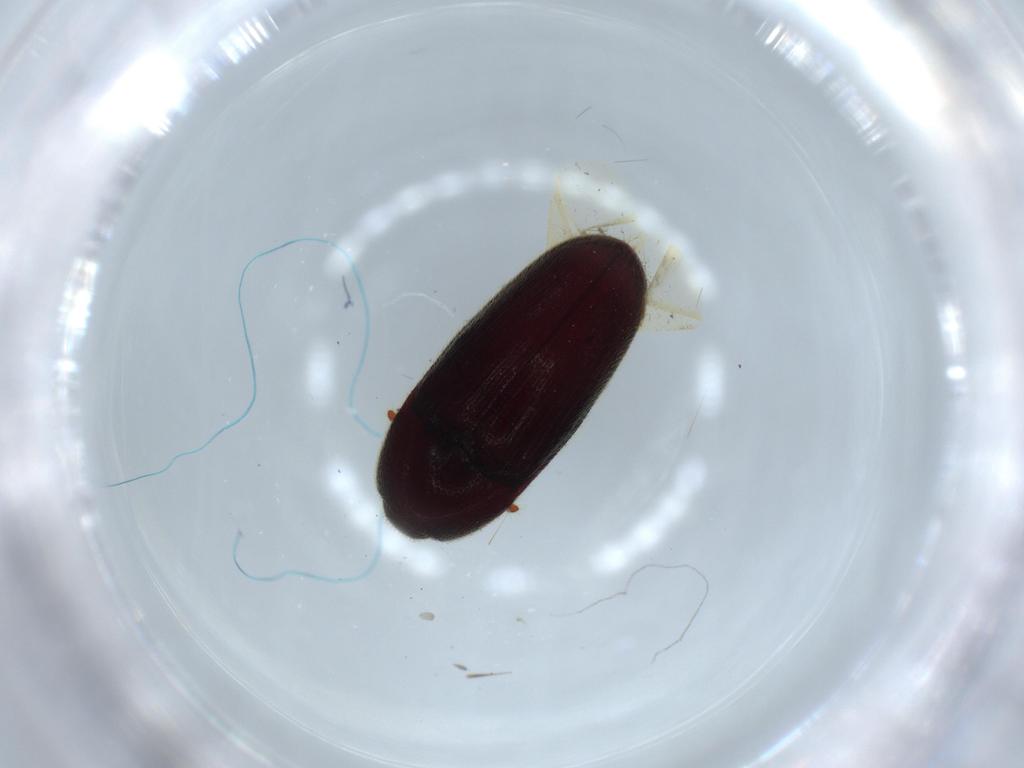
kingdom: Animalia
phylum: Arthropoda
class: Insecta
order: Coleoptera
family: Throscidae
